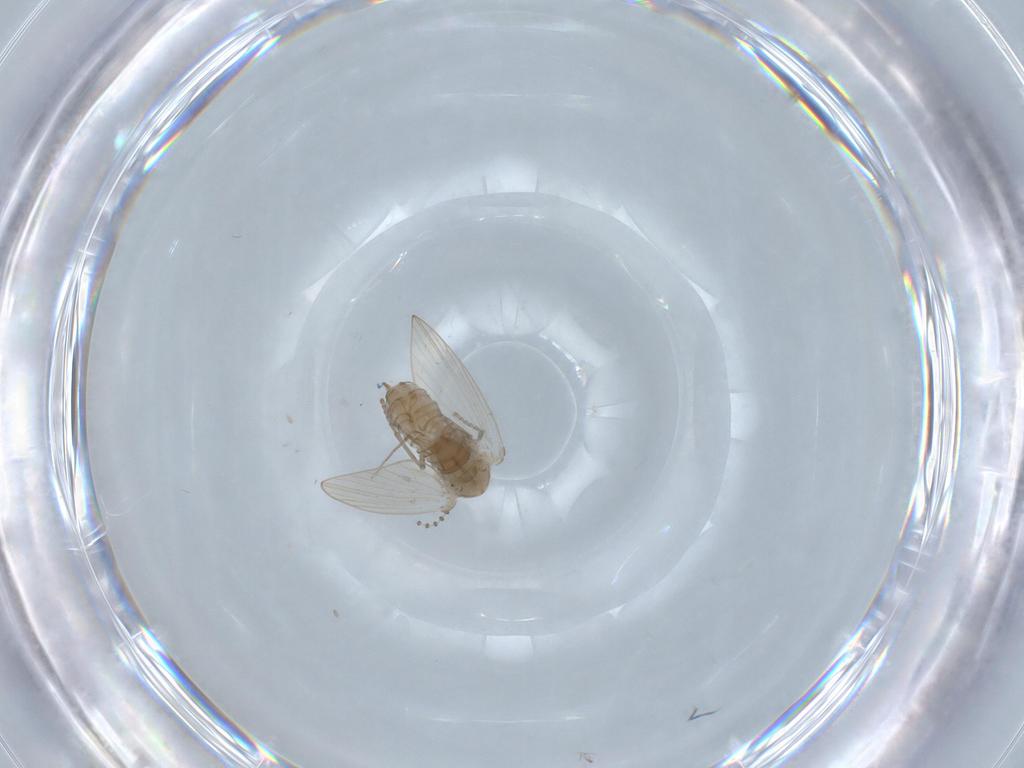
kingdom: Animalia
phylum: Arthropoda
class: Insecta
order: Diptera
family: Psychodidae
